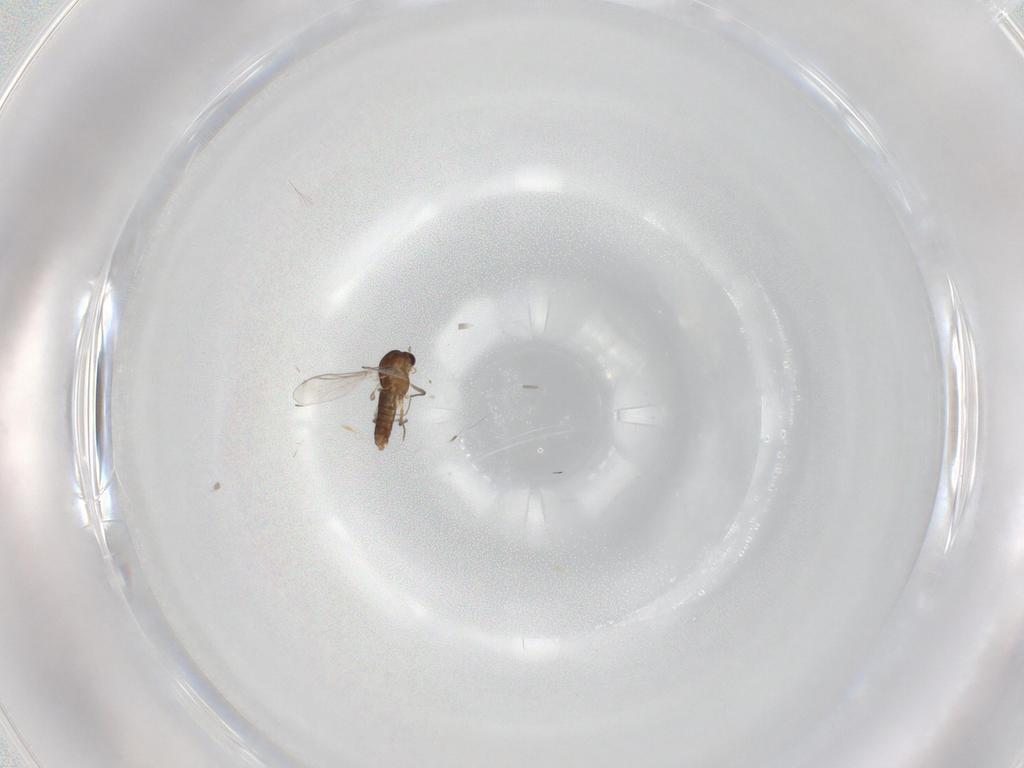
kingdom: Animalia
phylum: Arthropoda
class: Insecta
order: Diptera
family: Chironomidae
